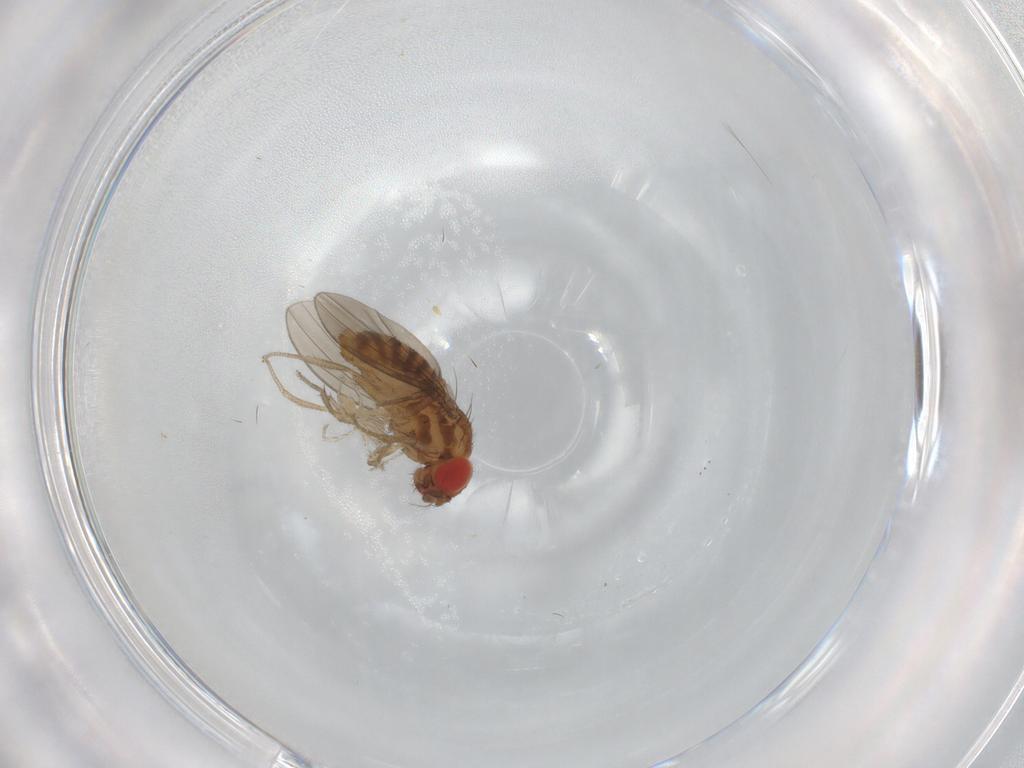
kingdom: Animalia
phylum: Arthropoda
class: Insecta
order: Diptera
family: Ephydridae
